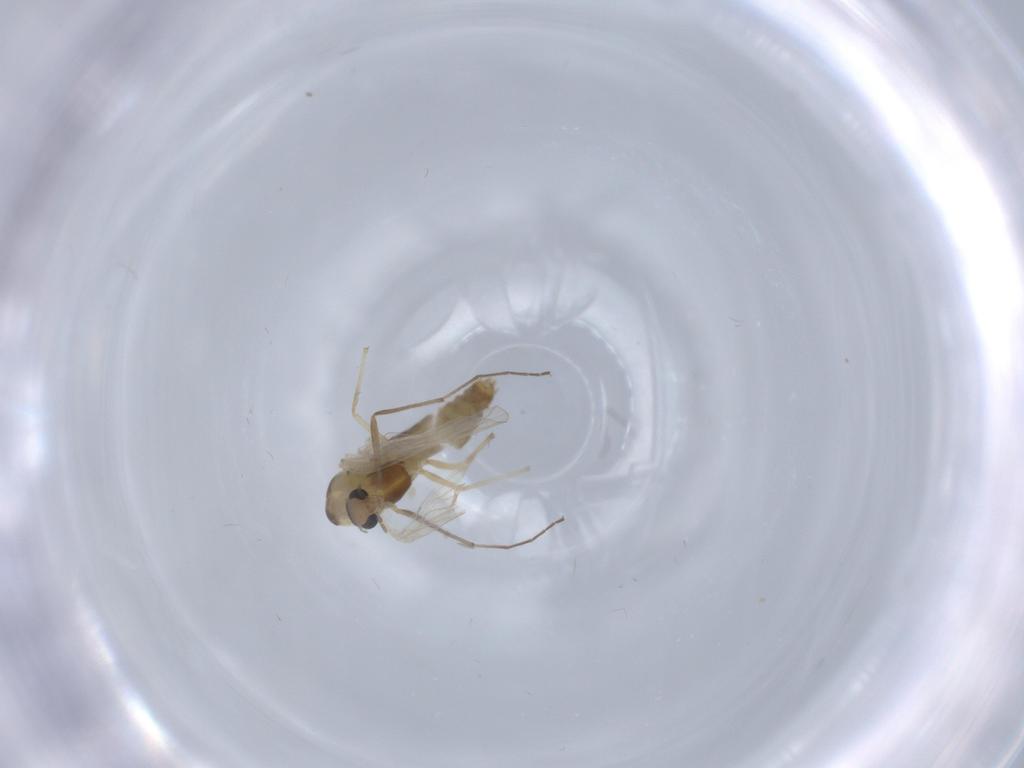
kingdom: Animalia
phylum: Arthropoda
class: Insecta
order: Diptera
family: Chironomidae
